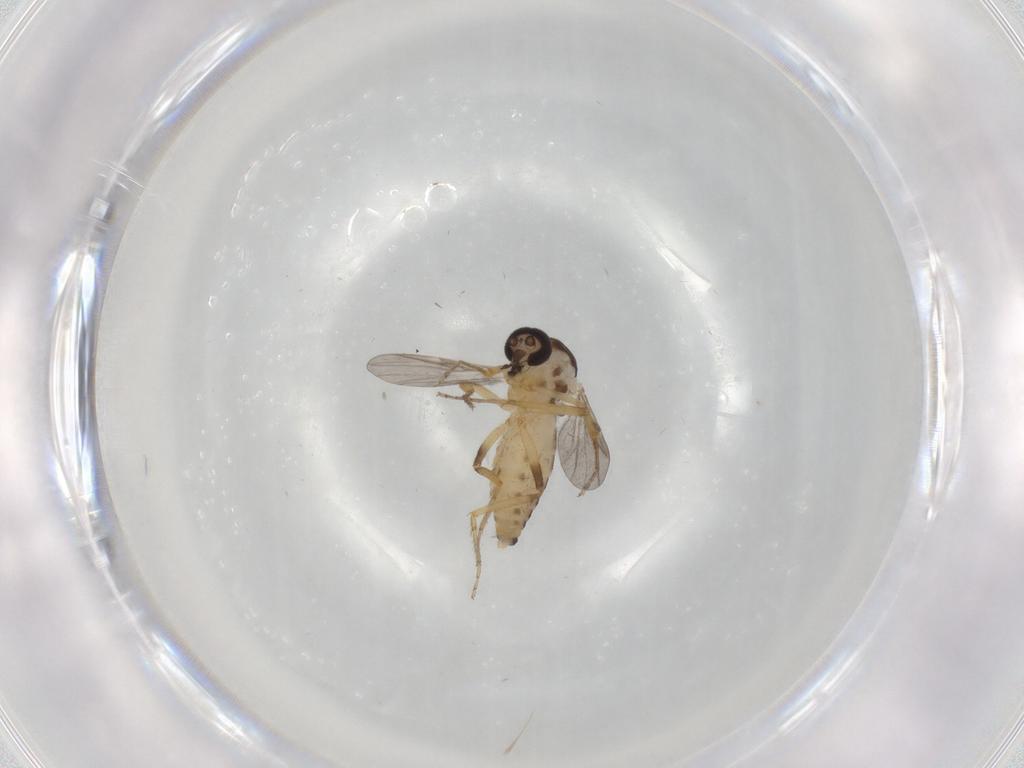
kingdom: Animalia
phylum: Arthropoda
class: Insecta
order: Diptera
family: Ceratopogonidae
